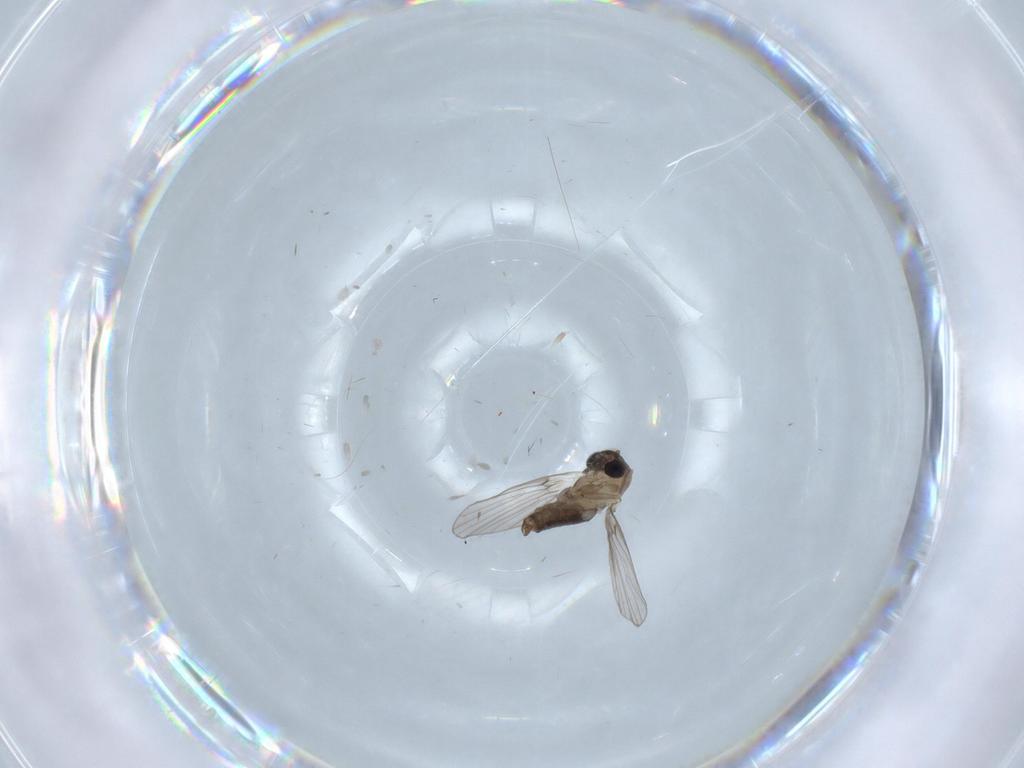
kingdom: Animalia
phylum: Arthropoda
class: Insecta
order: Diptera
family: Psychodidae
